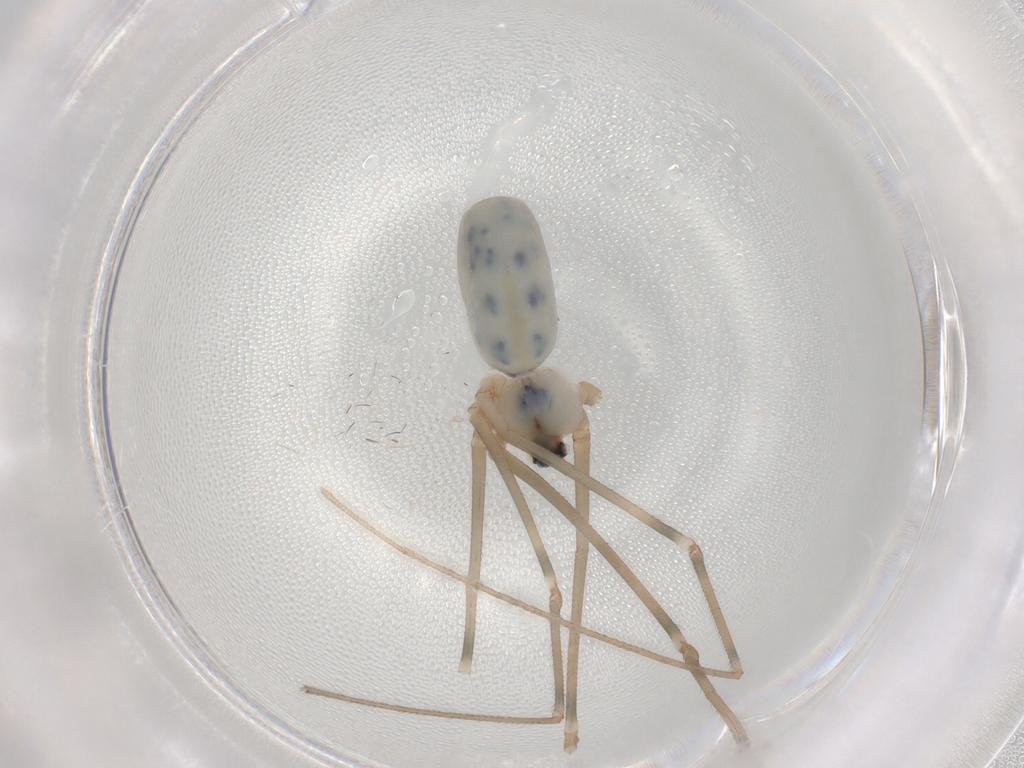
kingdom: Animalia
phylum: Arthropoda
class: Arachnida
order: Araneae
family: Pholcidae
